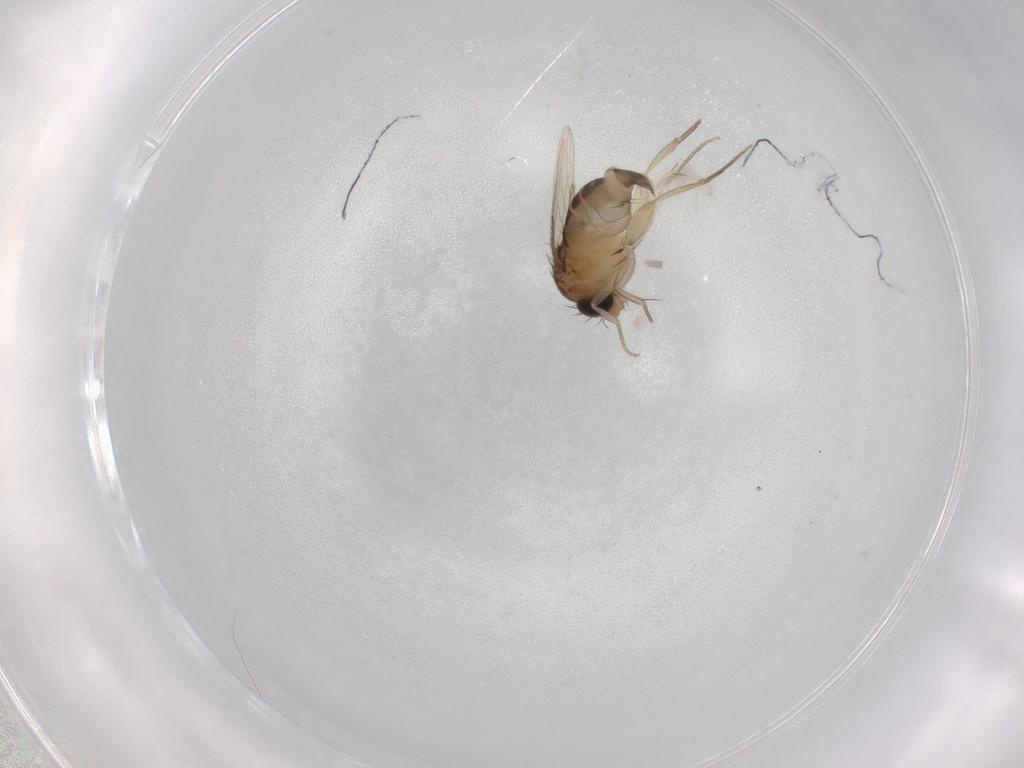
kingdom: Animalia
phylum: Arthropoda
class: Insecta
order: Diptera
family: Phoridae
